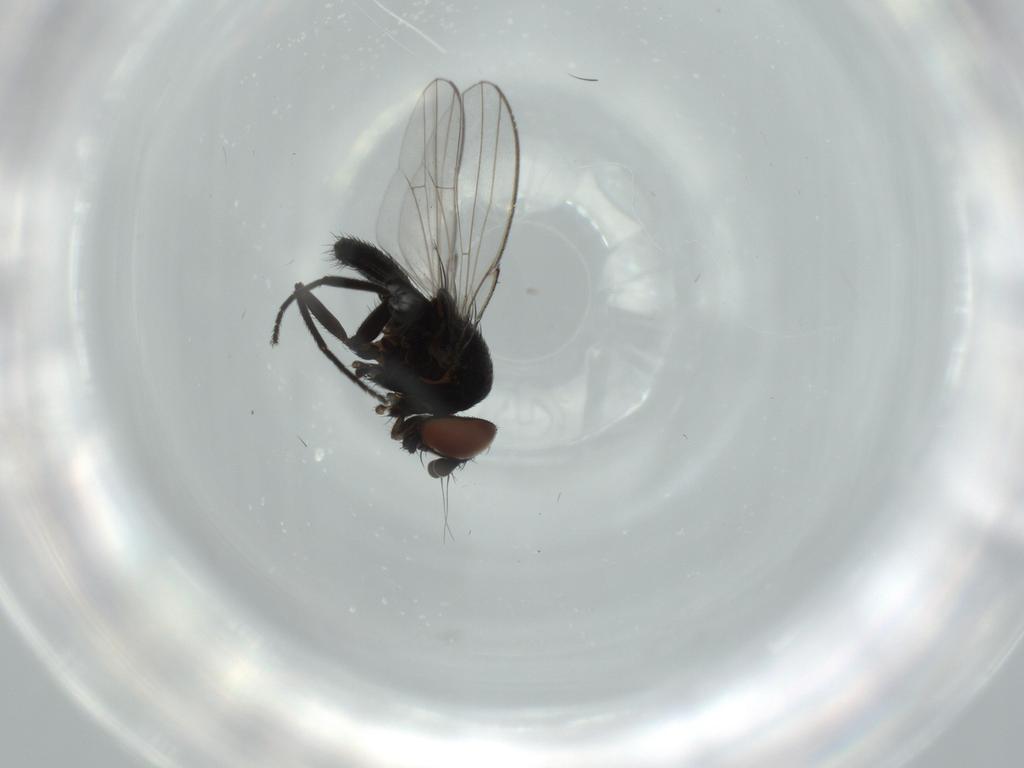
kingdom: Animalia
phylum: Arthropoda
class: Insecta
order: Diptera
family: Milichiidae
